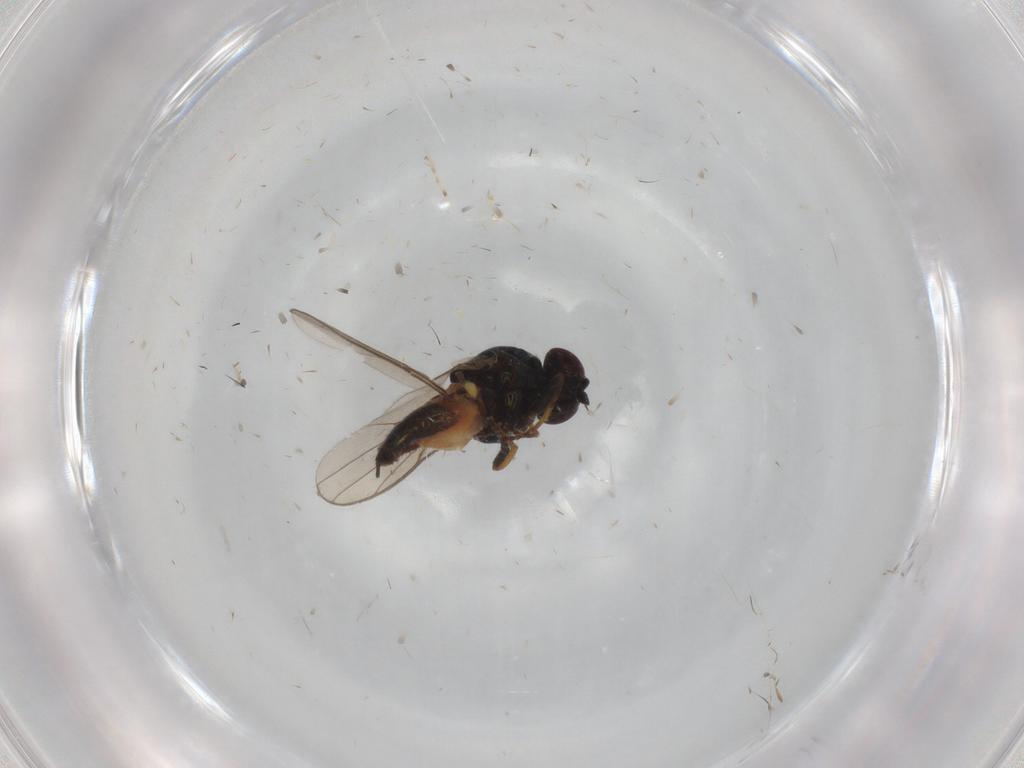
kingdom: Animalia
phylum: Arthropoda
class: Insecta
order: Diptera
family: Chloropidae
